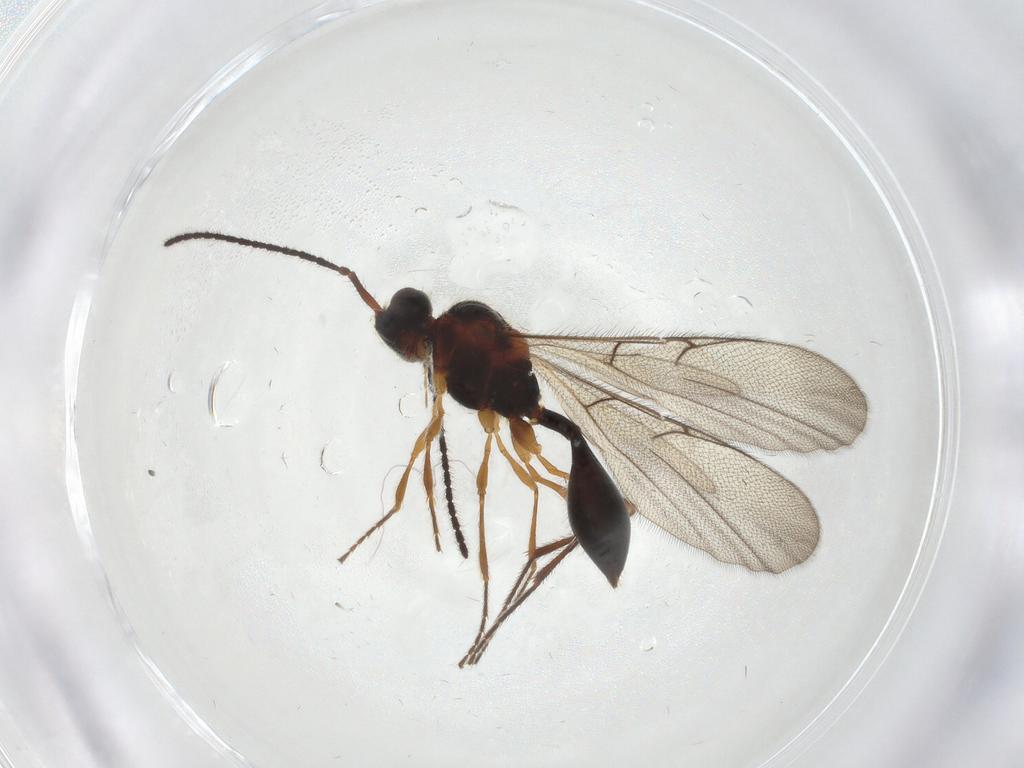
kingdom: Animalia
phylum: Arthropoda
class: Insecta
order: Hymenoptera
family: Diapriidae
